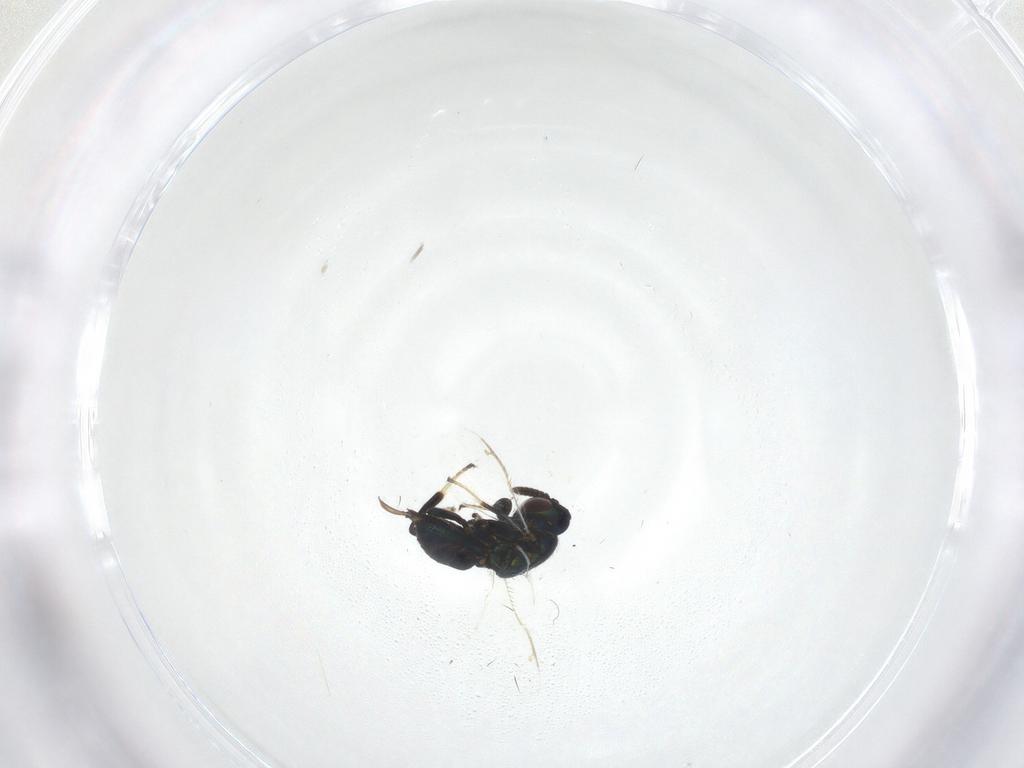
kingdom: Animalia
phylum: Arthropoda
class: Insecta
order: Hymenoptera
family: Pteromalidae
